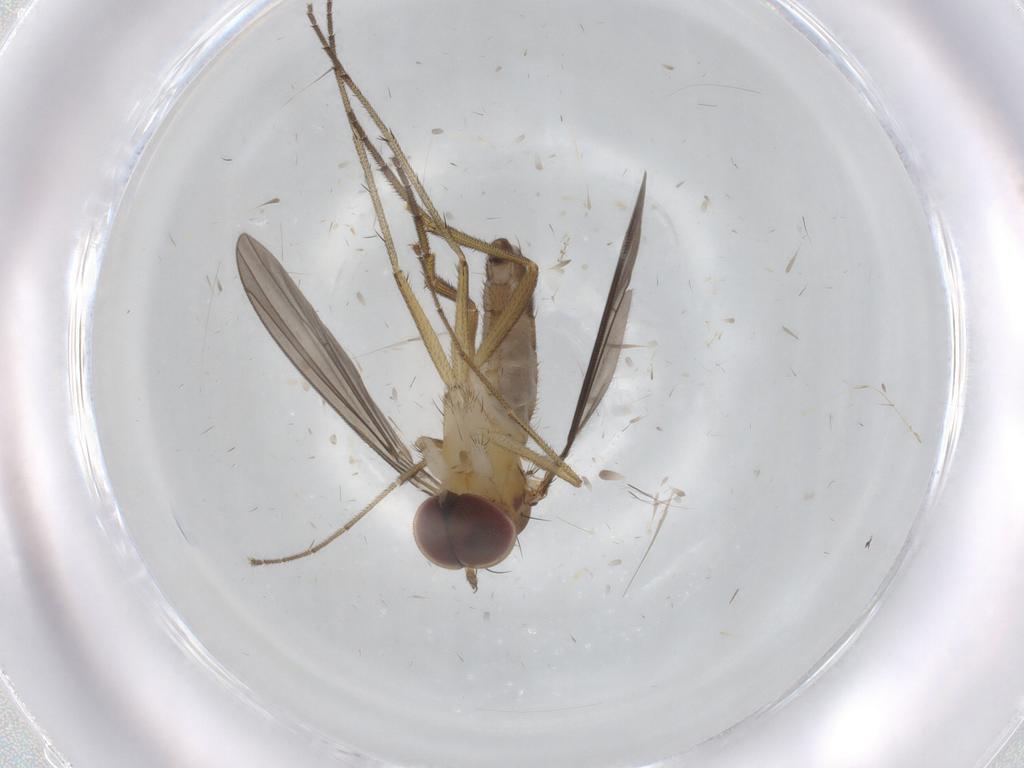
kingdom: Animalia
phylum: Arthropoda
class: Insecta
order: Diptera
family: Dolichopodidae
